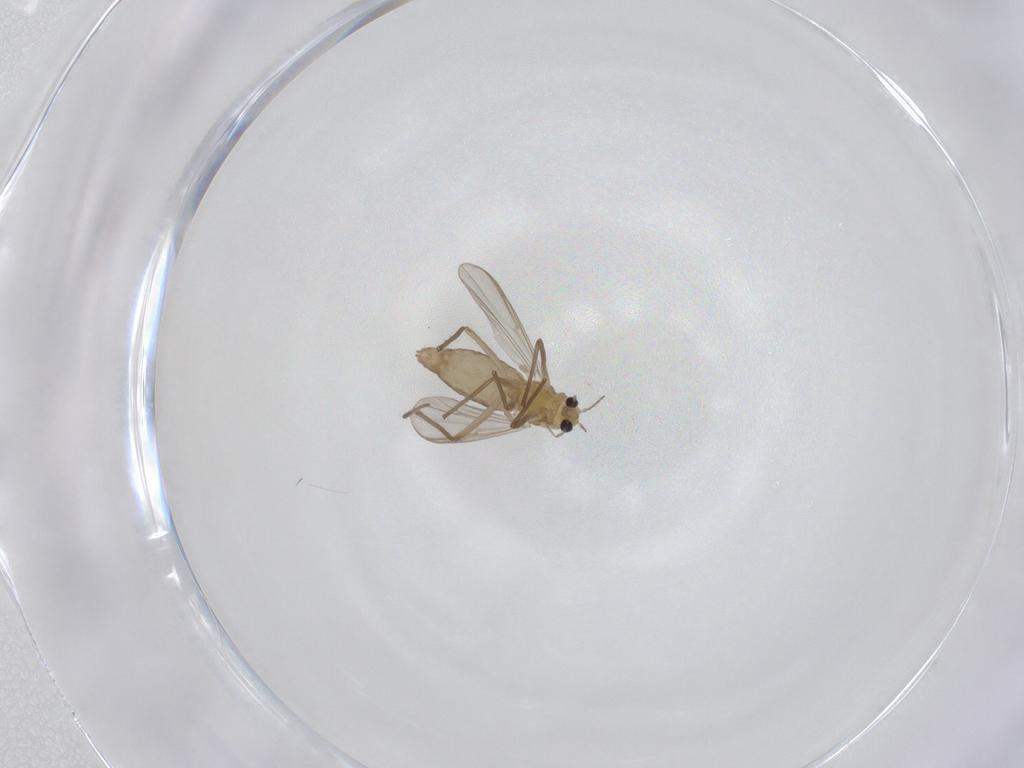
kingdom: Animalia
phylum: Arthropoda
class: Insecta
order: Diptera
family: Chironomidae
